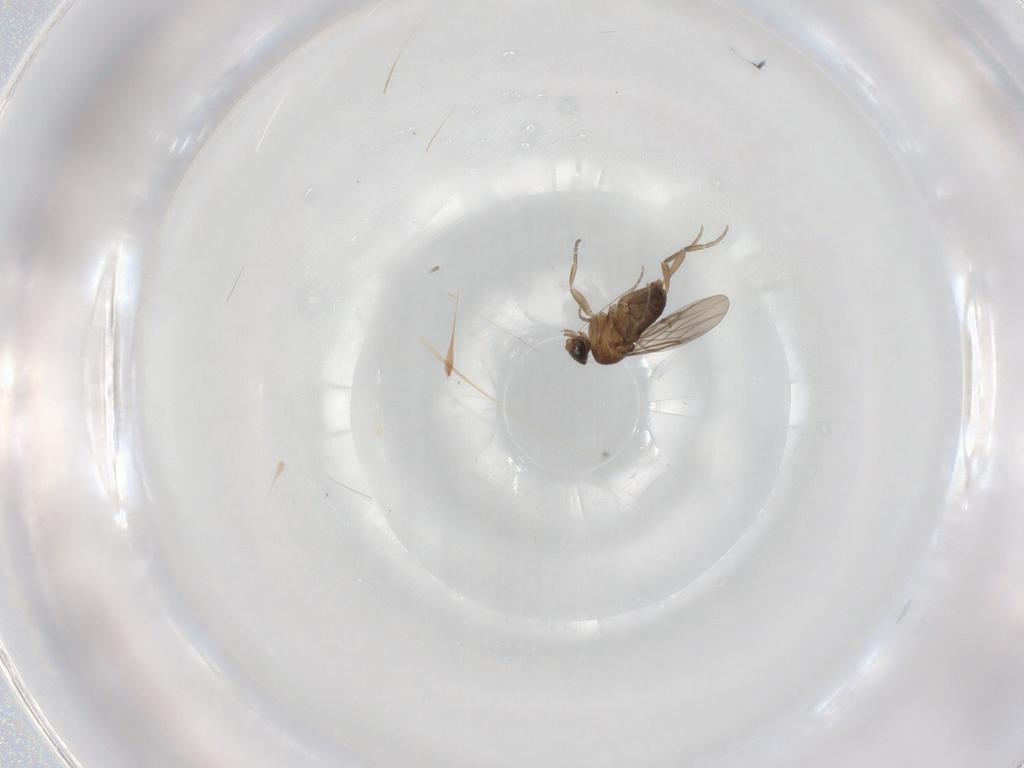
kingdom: Animalia
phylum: Arthropoda
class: Insecta
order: Diptera
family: Phoridae
